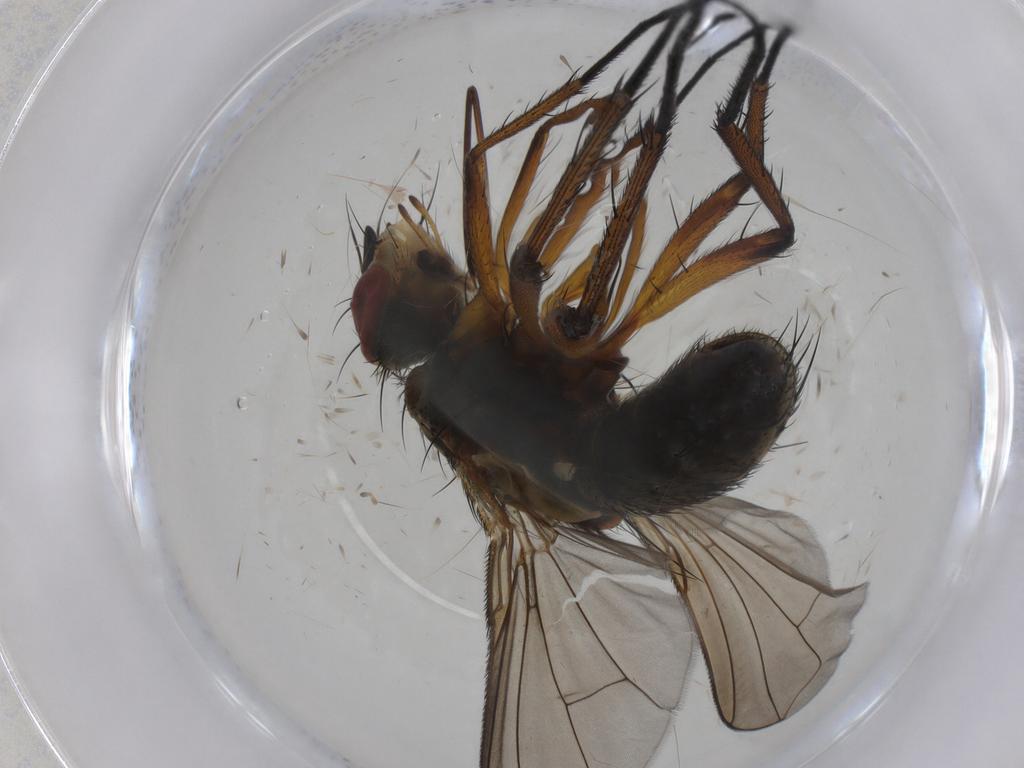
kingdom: Animalia
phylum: Arthropoda
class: Insecta
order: Diptera
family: Tachinidae
